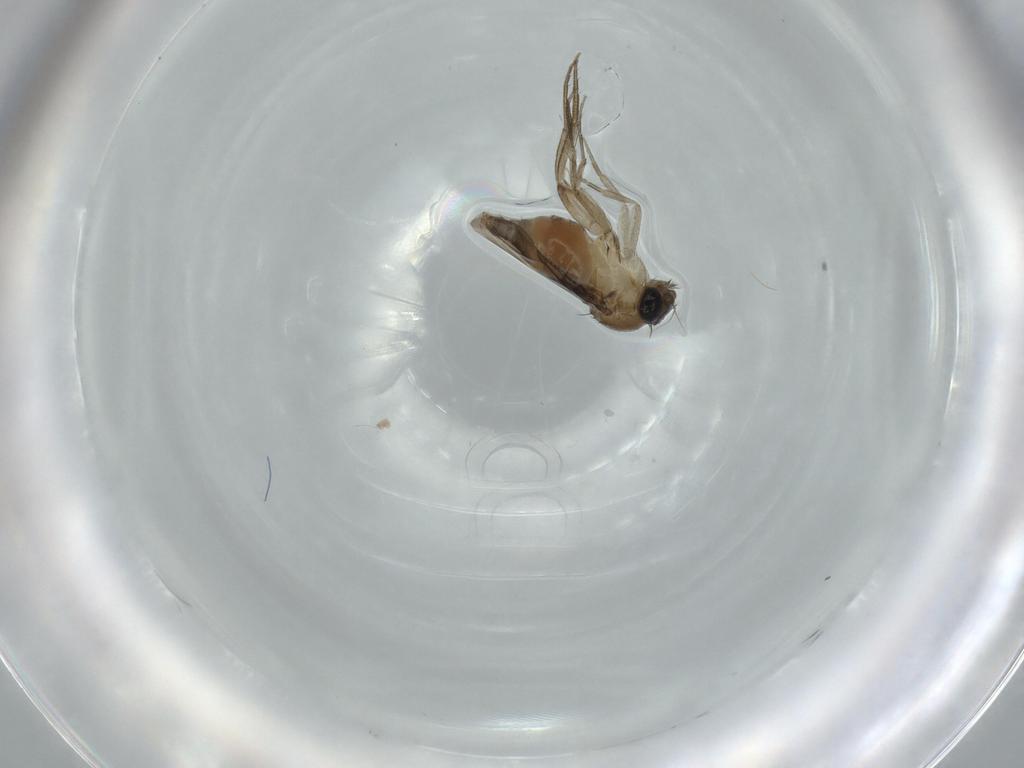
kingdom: Animalia
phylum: Arthropoda
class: Insecta
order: Diptera
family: Phoridae
